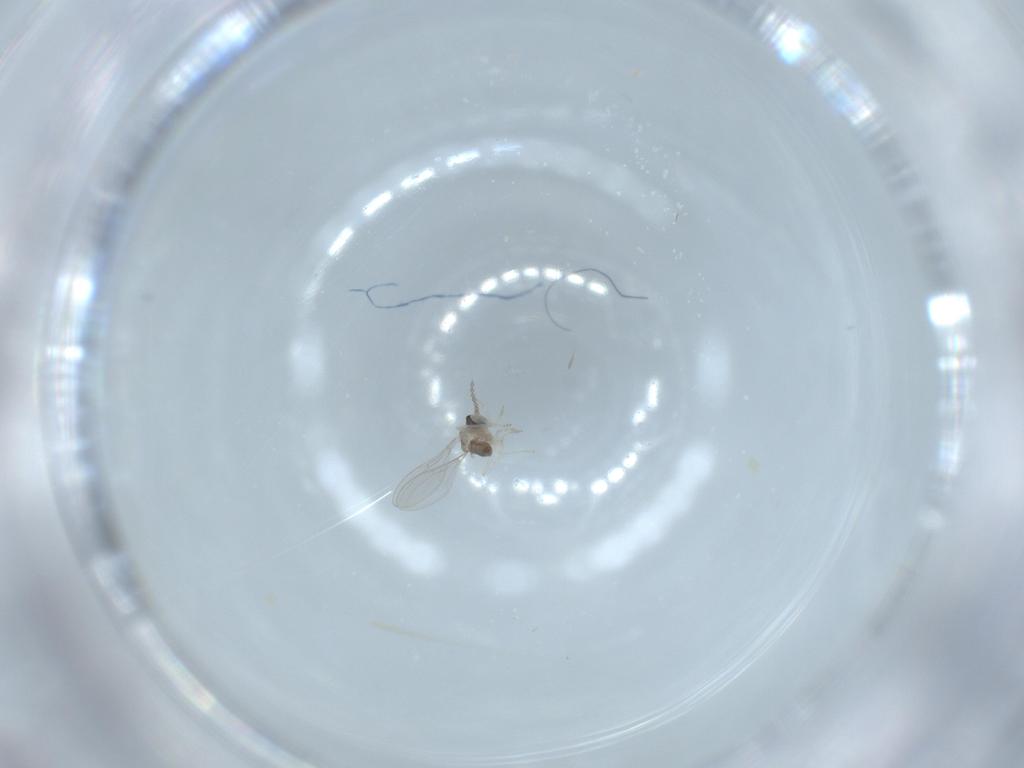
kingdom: Animalia
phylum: Arthropoda
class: Insecta
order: Diptera
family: Cecidomyiidae
